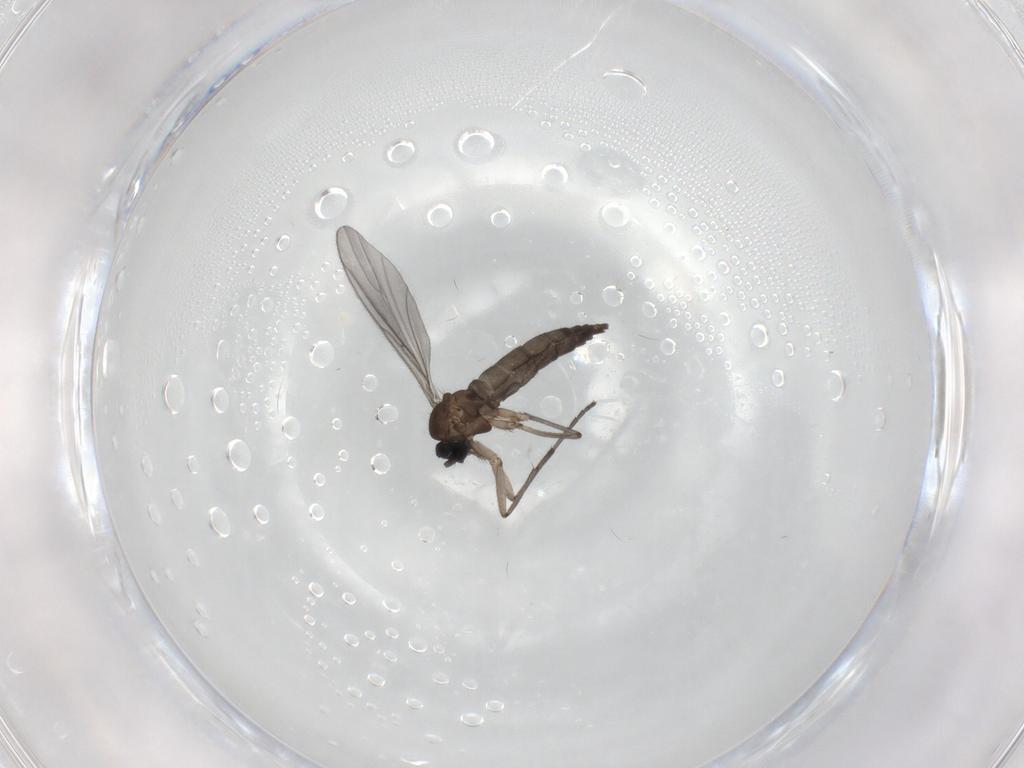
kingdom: Animalia
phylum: Arthropoda
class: Insecta
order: Diptera
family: Sciaridae
